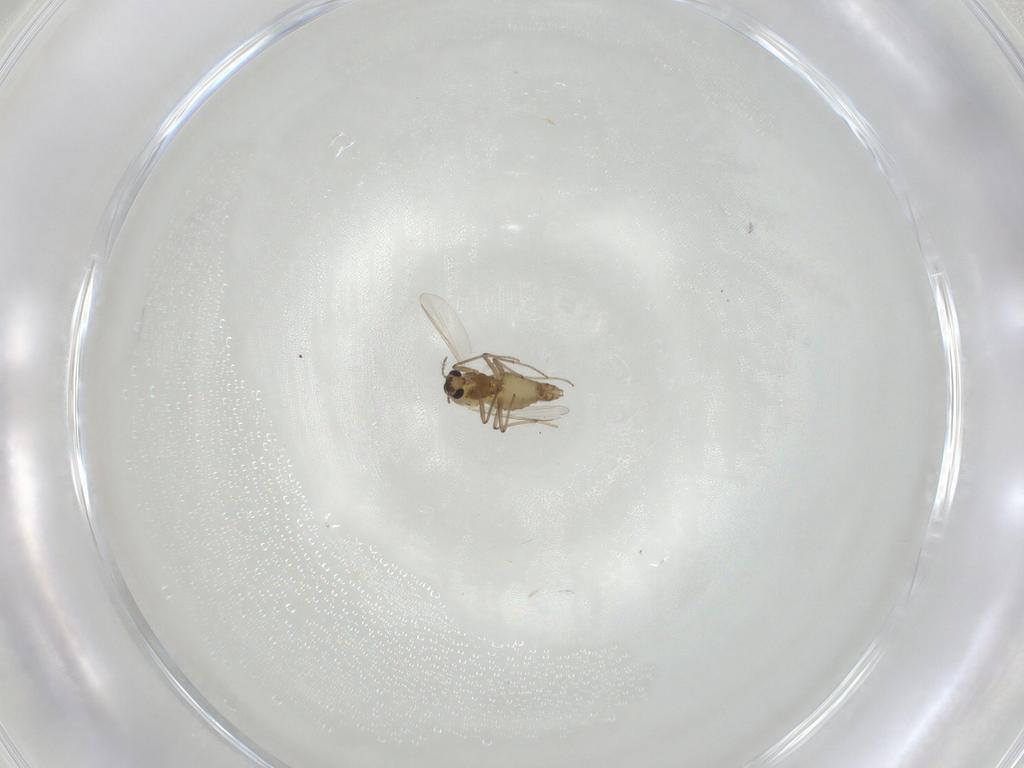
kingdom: Animalia
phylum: Arthropoda
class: Insecta
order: Diptera
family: Chironomidae
